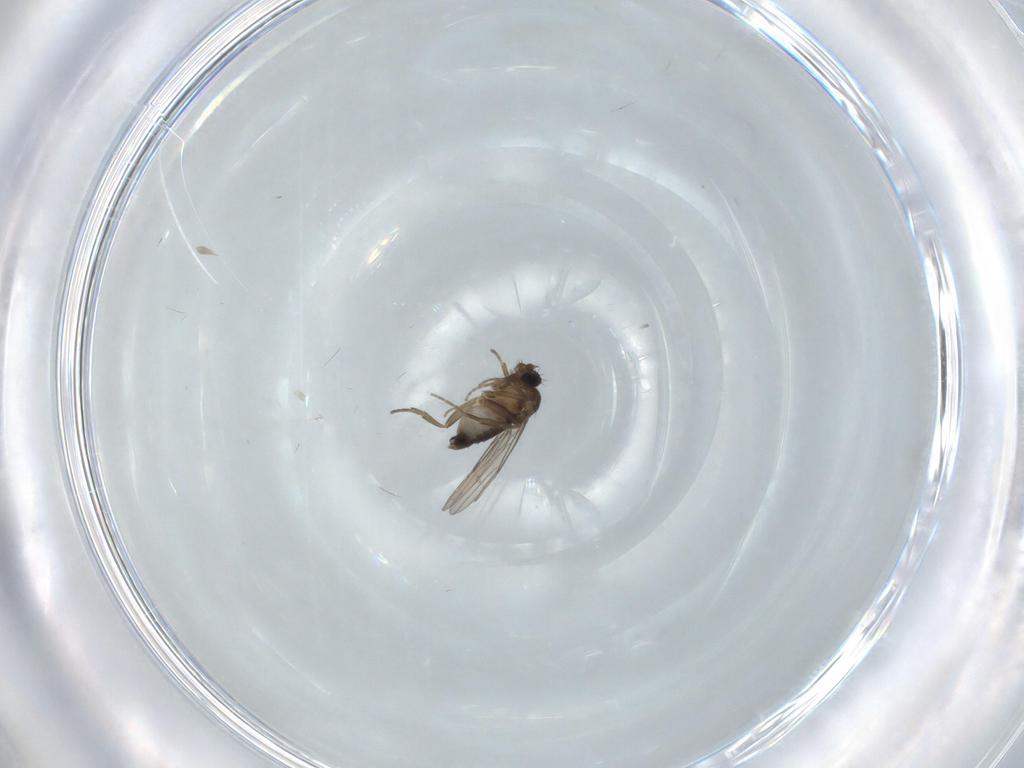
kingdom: Animalia
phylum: Arthropoda
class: Insecta
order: Diptera
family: Phoridae
